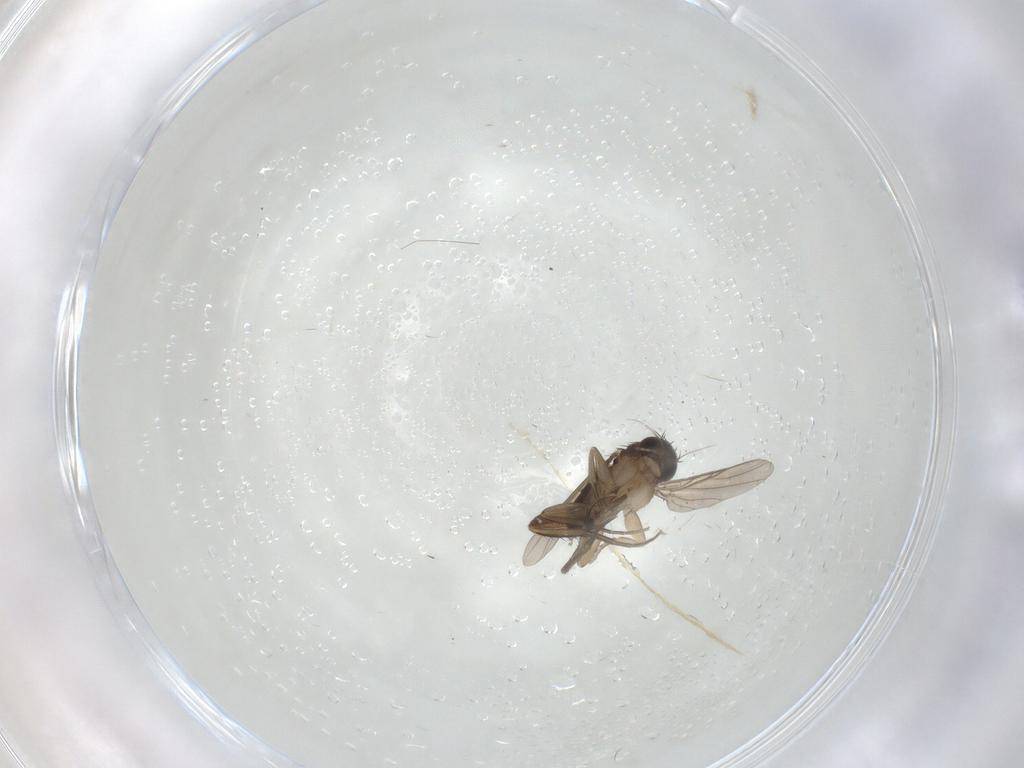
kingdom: Animalia
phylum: Arthropoda
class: Insecta
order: Diptera
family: Phoridae
